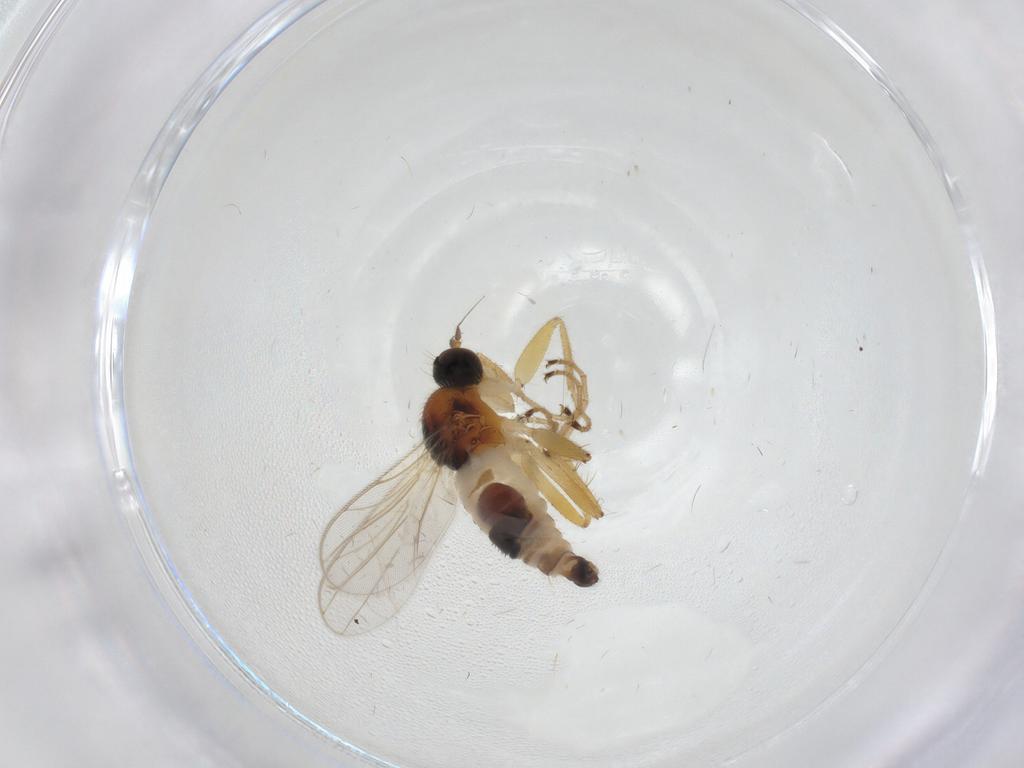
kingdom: Animalia
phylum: Arthropoda
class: Insecta
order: Diptera
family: Hybotidae
